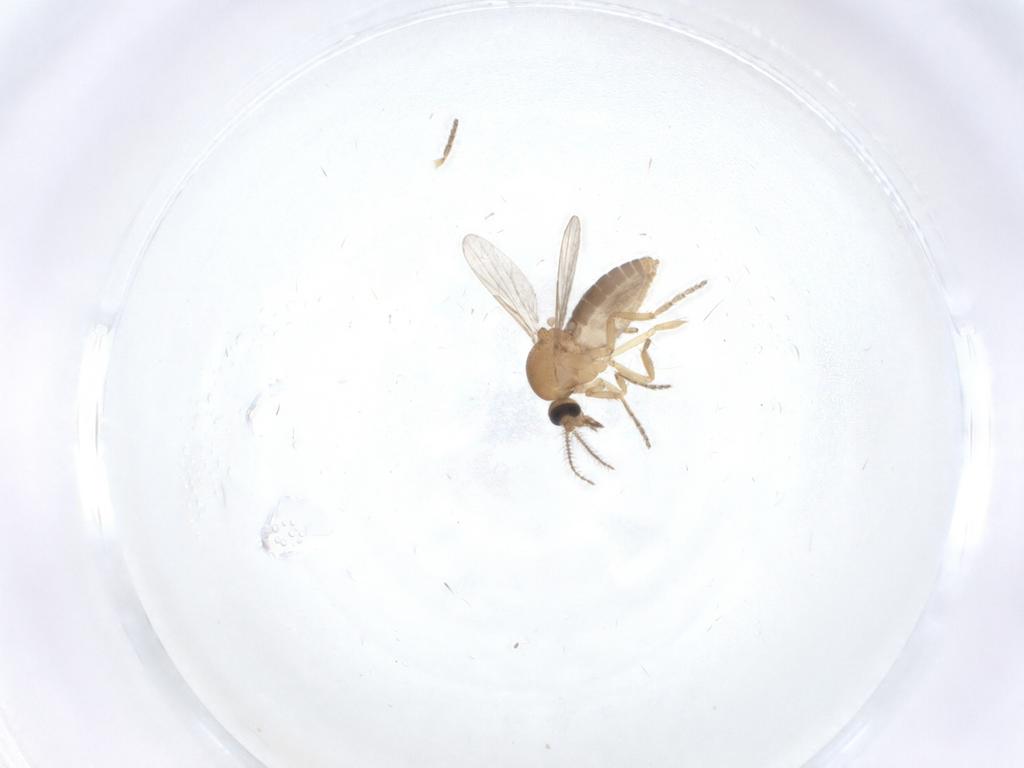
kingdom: Animalia
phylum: Arthropoda
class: Insecta
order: Diptera
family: Ceratopogonidae
